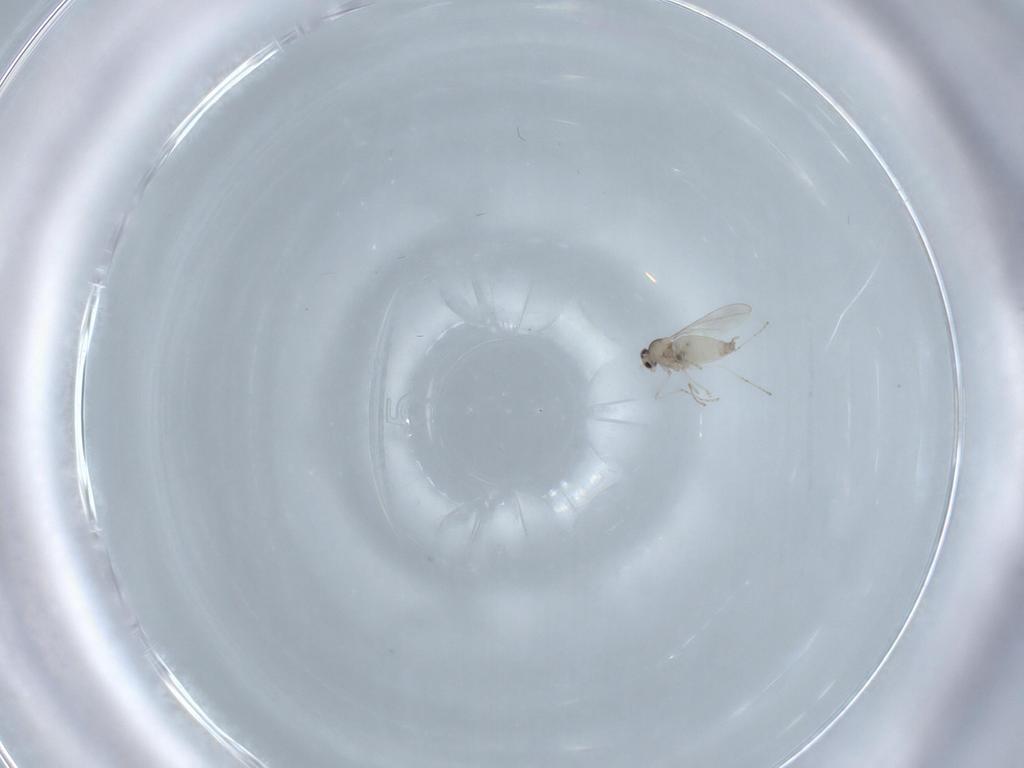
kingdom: Animalia
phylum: Arthropoda
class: Insecta
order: Diptera
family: Cecidomyiidae
